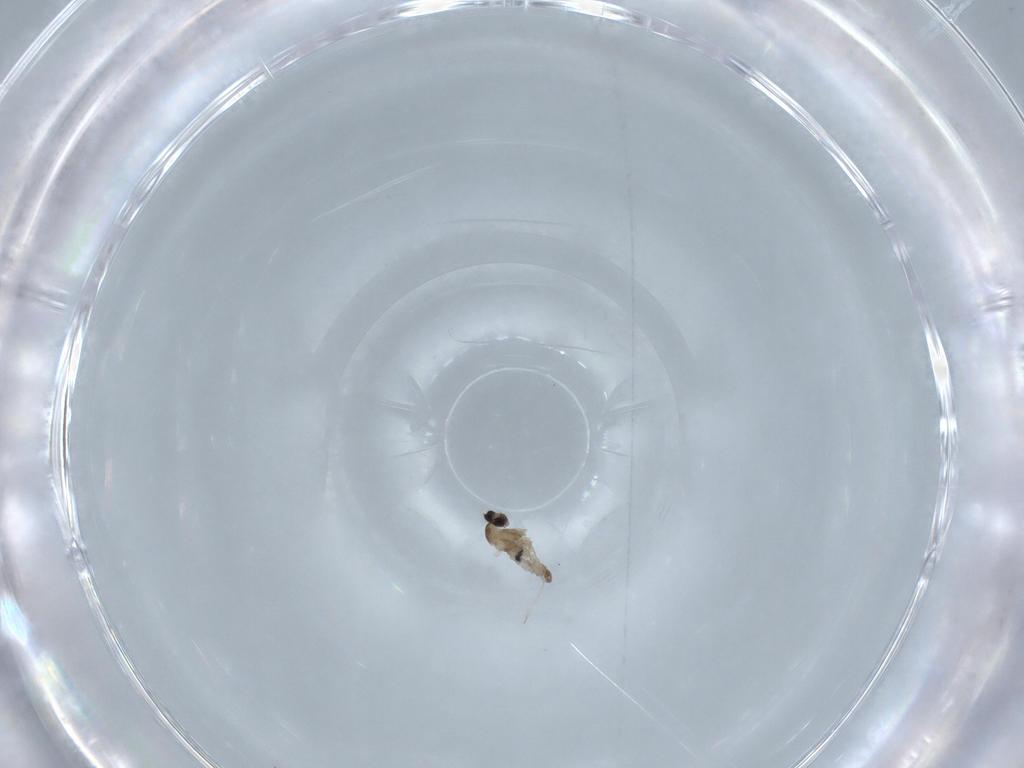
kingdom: Animalia
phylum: Arthropoda
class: Insecta
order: Diptera
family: Cecidomyiidae
